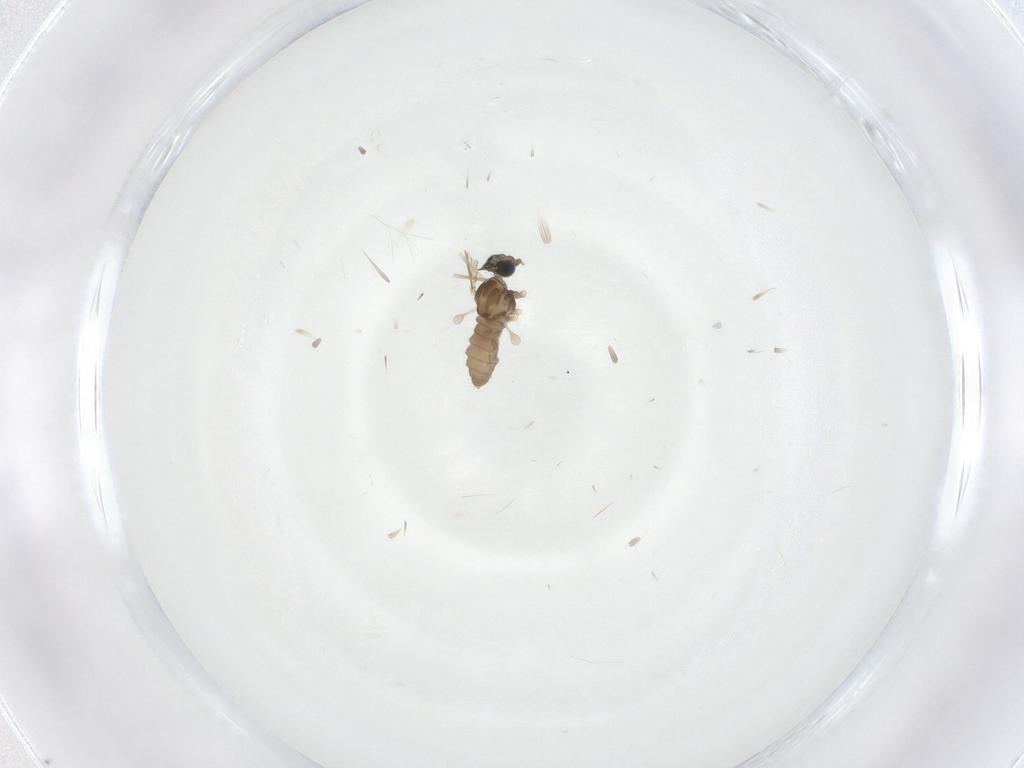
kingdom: Animalia
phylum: Arthropoda
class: Insecta
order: Diptera
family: Cecidomyiidae
